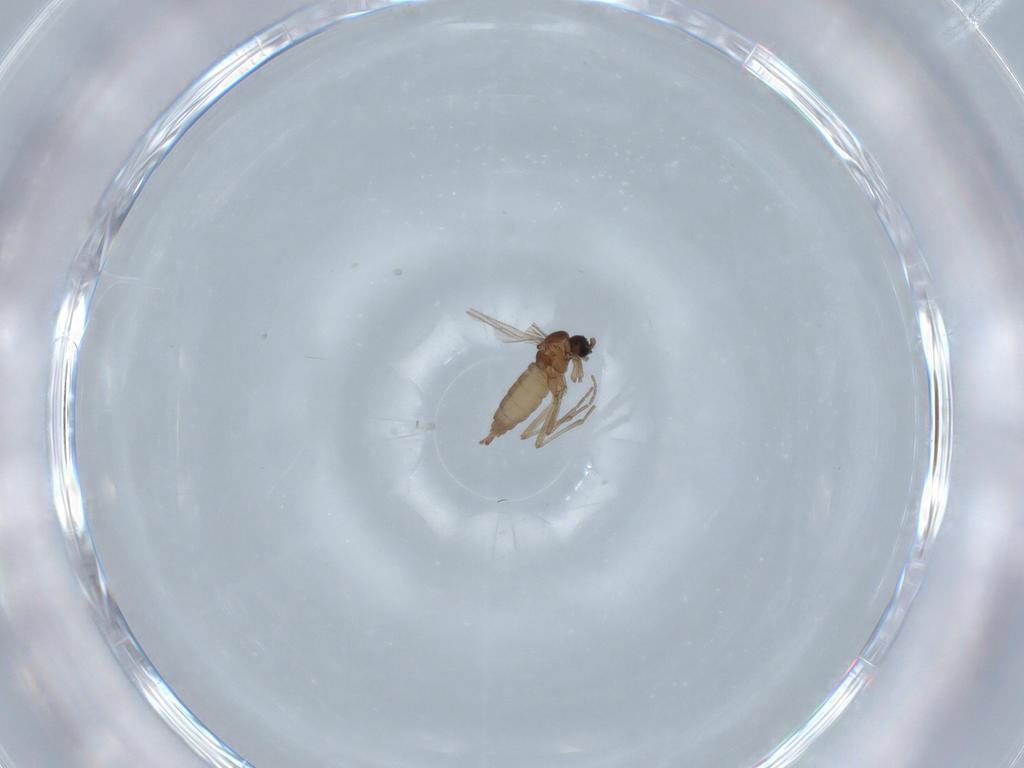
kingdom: Animalia
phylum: Arthropoda
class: Insecta
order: Diptera
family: Sciaridae
